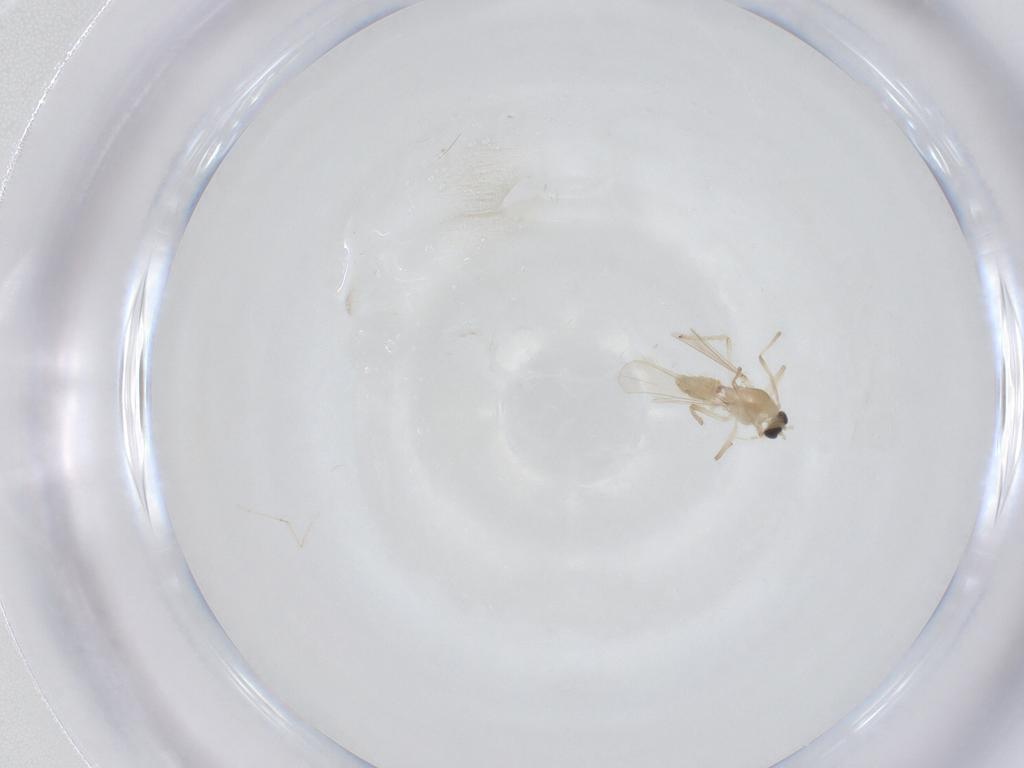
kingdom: Animalia
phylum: Arthropoda
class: Insecta
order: Diptera
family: Chironomidae
